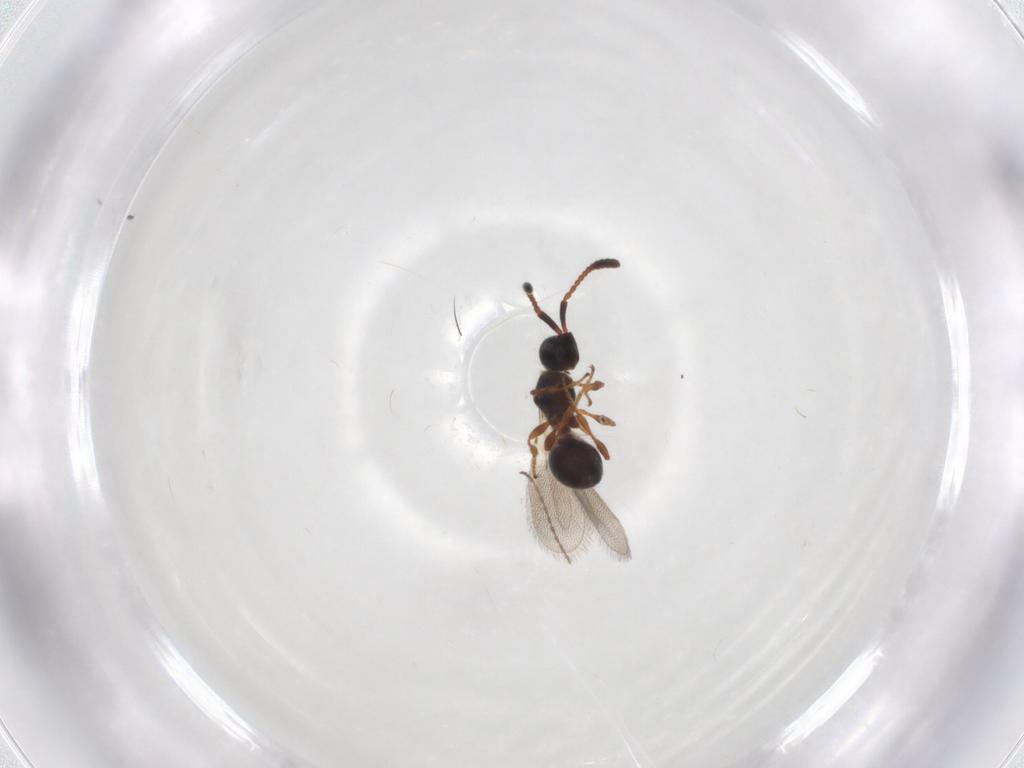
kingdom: Animalia
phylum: Arthropoda
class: Insecta
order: Hymenoptera
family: Diapriidae
